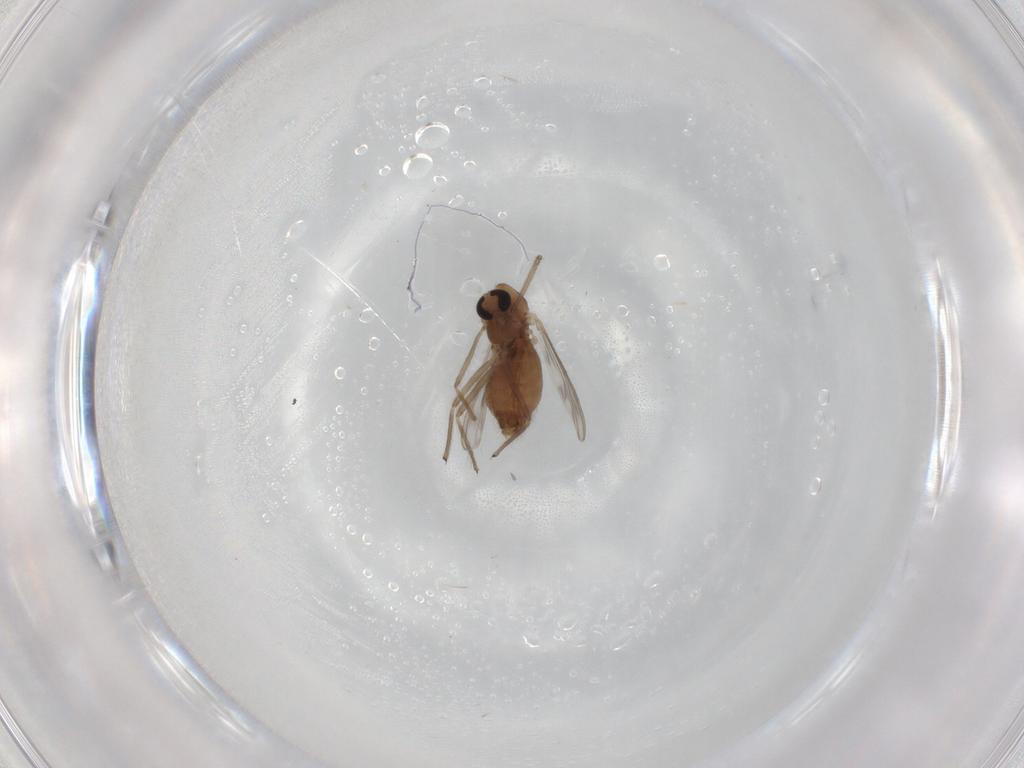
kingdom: Animalia
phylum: Arthropoda
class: Insecta
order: Diptera
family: Chironomidae
